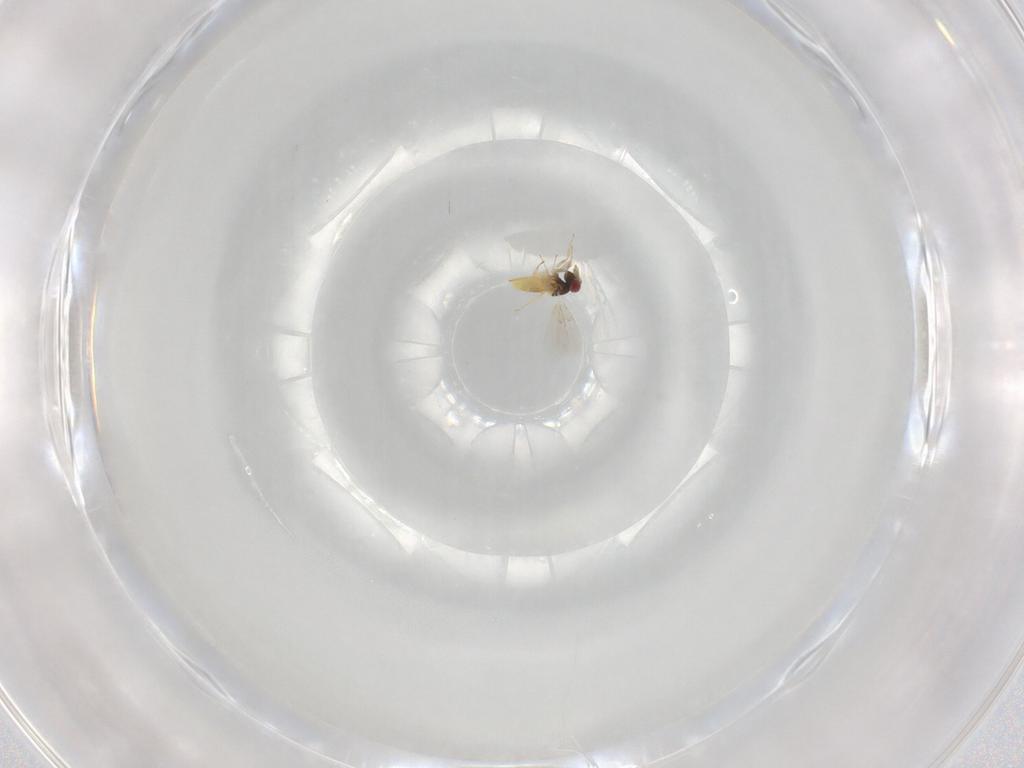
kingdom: Animalia
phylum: Arthropoda
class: Insecta
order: Hymenoptera
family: Trichogrammatidae
